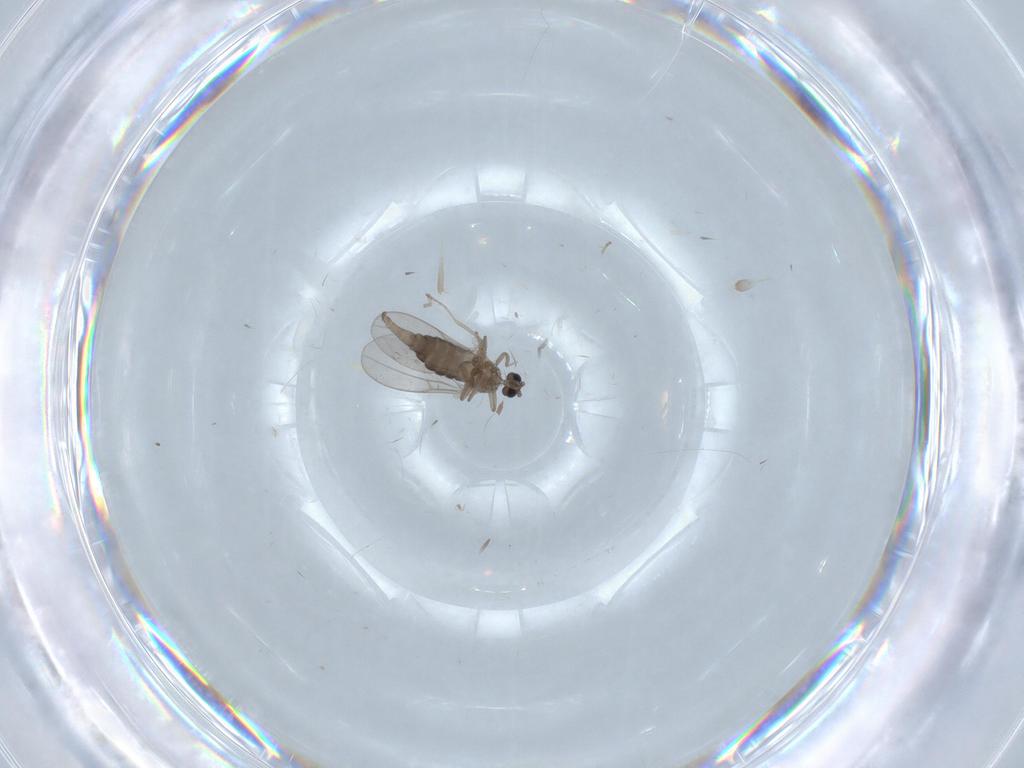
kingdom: Animalia
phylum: Arthropoda
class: Insecta
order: Diptera
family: Cecidomyiidae
